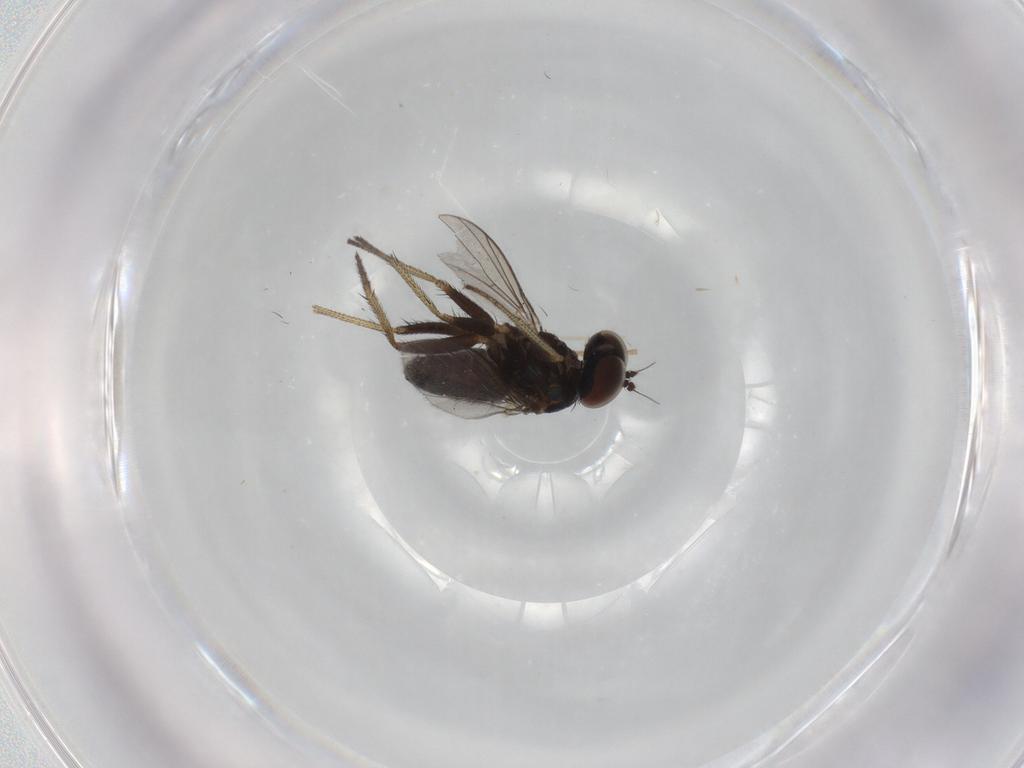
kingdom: Animalia
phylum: Arthropoda
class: Insecta
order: Diptera
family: Dolichopodidae
